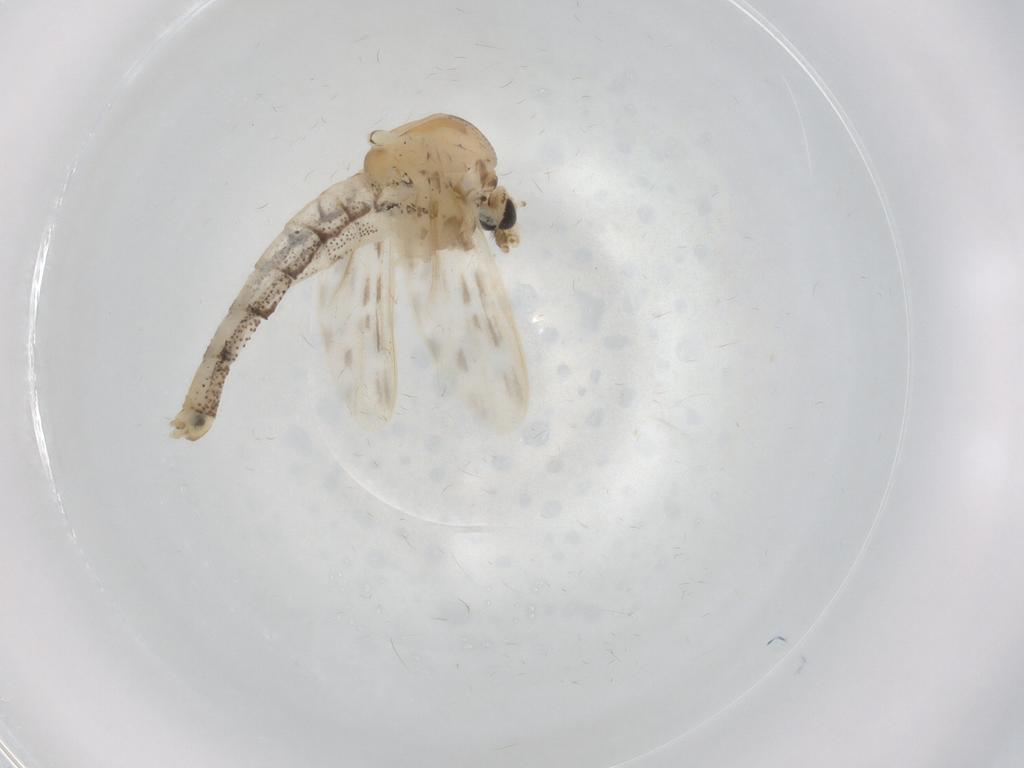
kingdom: Animalia
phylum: Arthropoda
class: Insecta
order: Diptera
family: Chaoboridae
